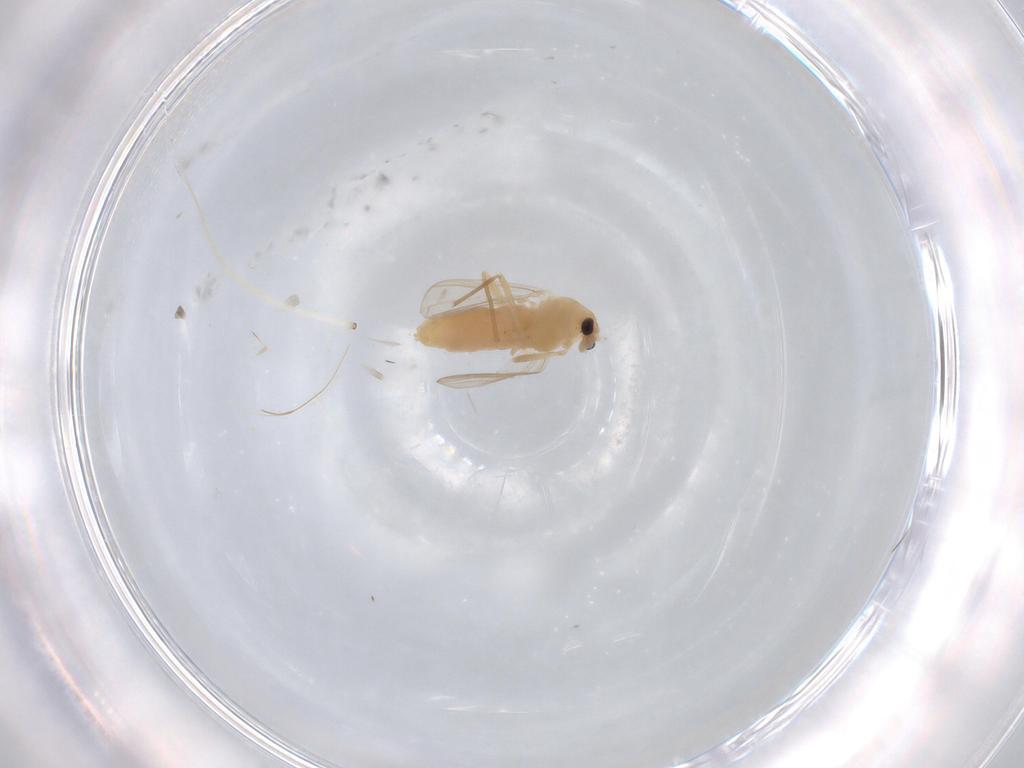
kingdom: Animalia
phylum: Arthropoda
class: Insecta
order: Diptera
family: Chironomidae
